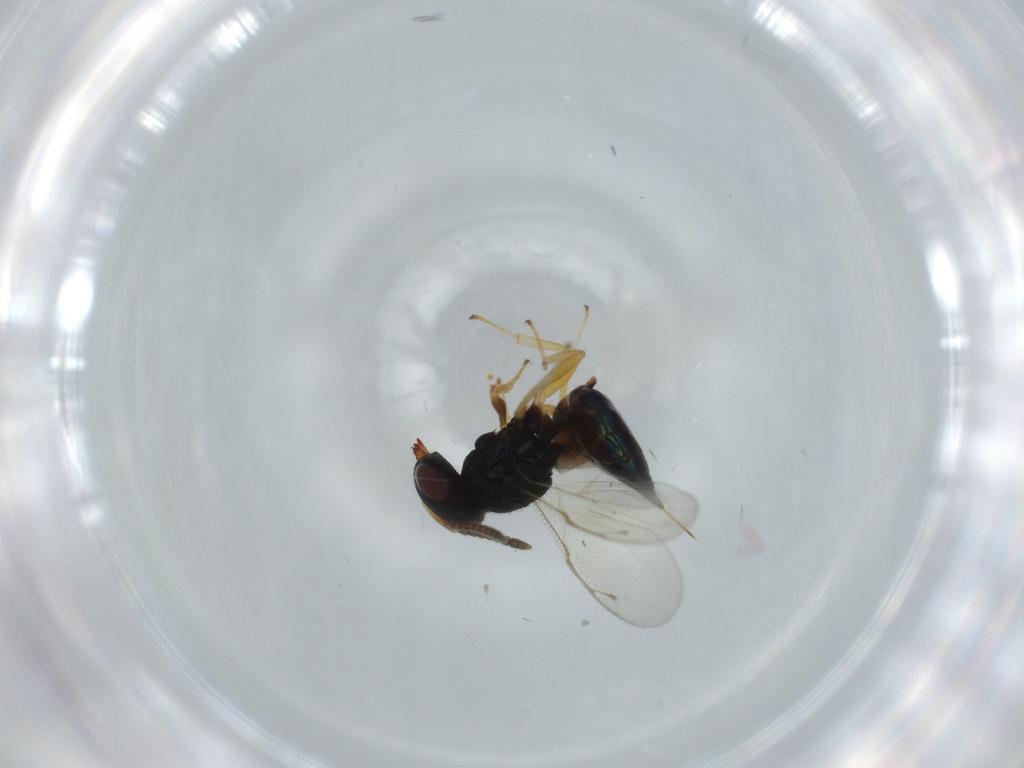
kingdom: Animalia
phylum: Arthropoda
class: Insecta
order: Hymenoptera
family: Pteromalidae
